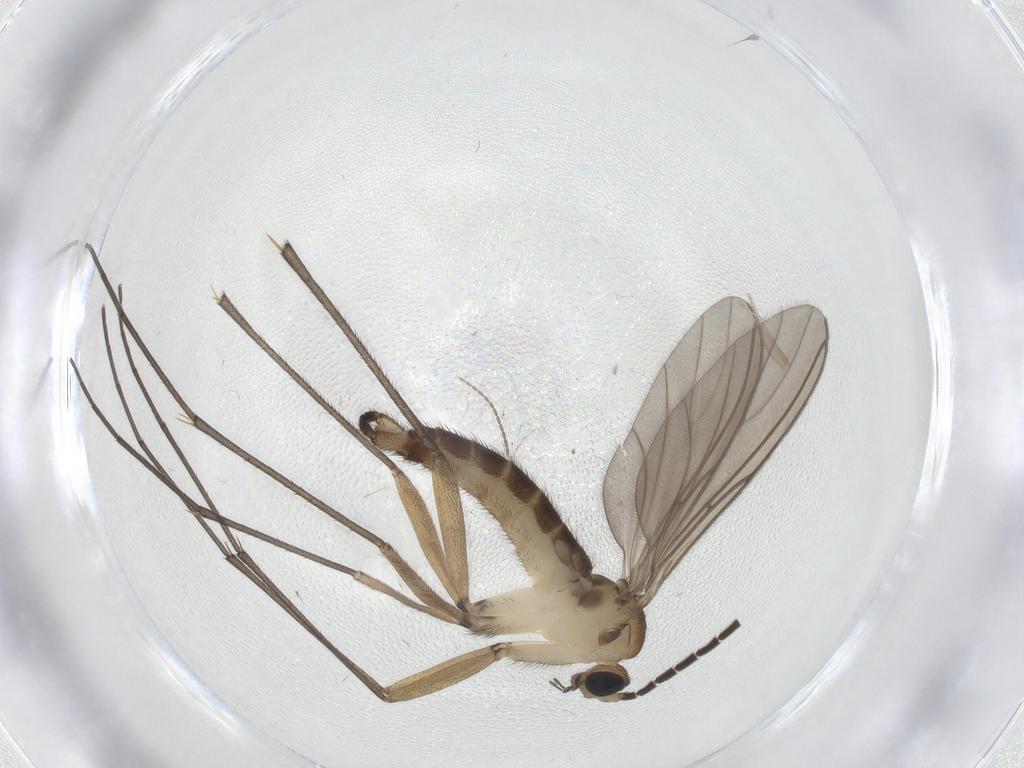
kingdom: Animalia
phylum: Arthropoda
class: Insecta
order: Diptera
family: Sciaridae
